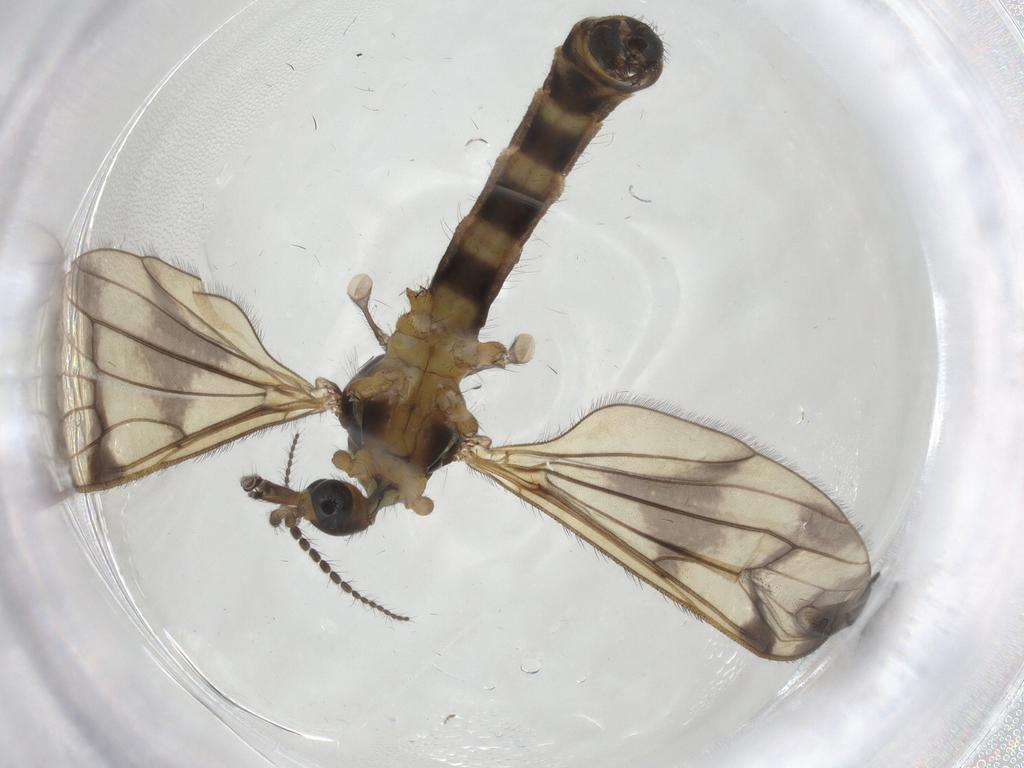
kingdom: Animalia
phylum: Arthropoda
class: Insecta
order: Diptera
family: Limoniidae
